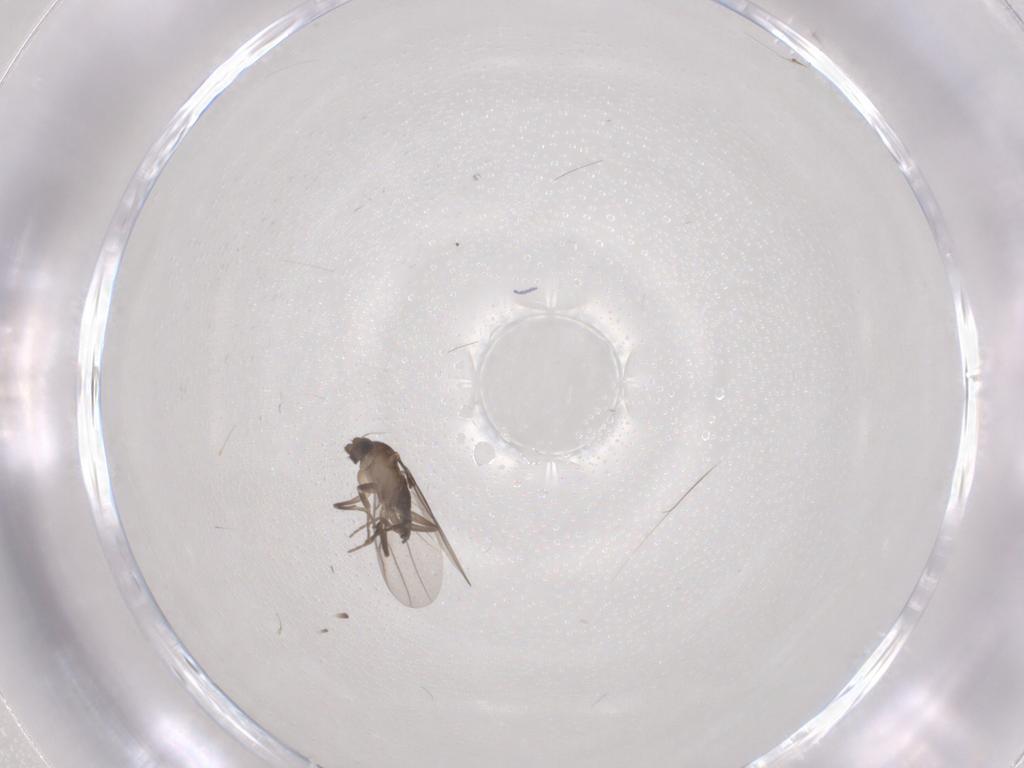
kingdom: Animalia
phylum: Arthropoda
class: Insecta
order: Diptera
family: Phoridae
